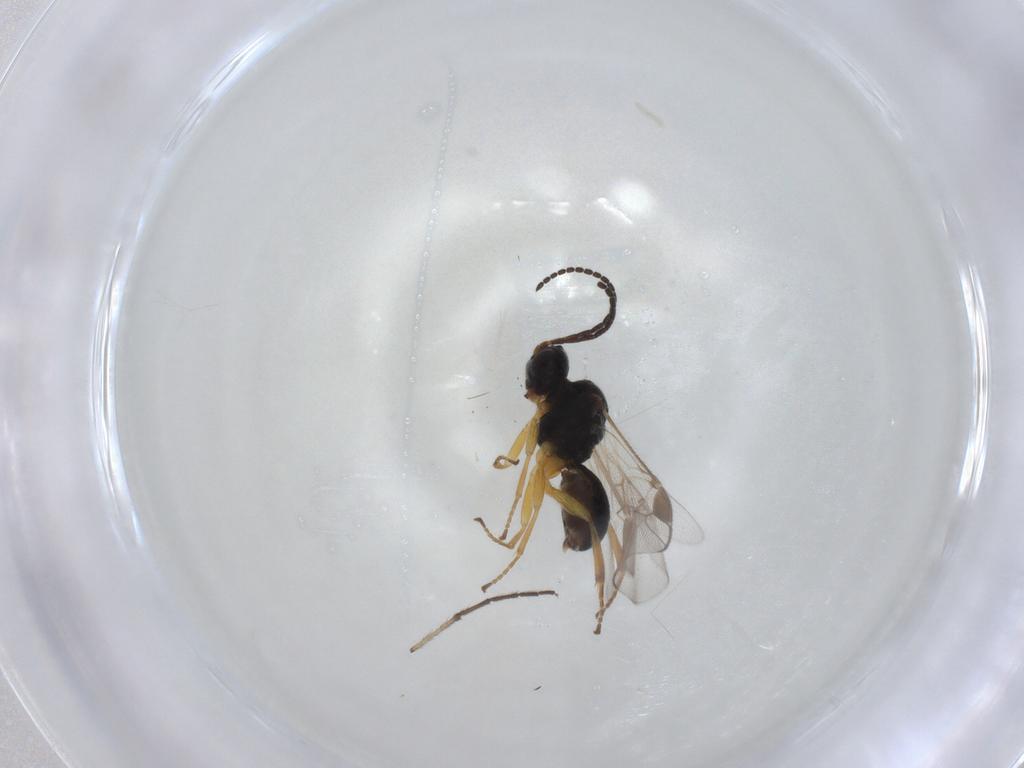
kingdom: Animalia
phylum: Arthropoda
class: Insecta
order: Hymenoptera
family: Braconidae
